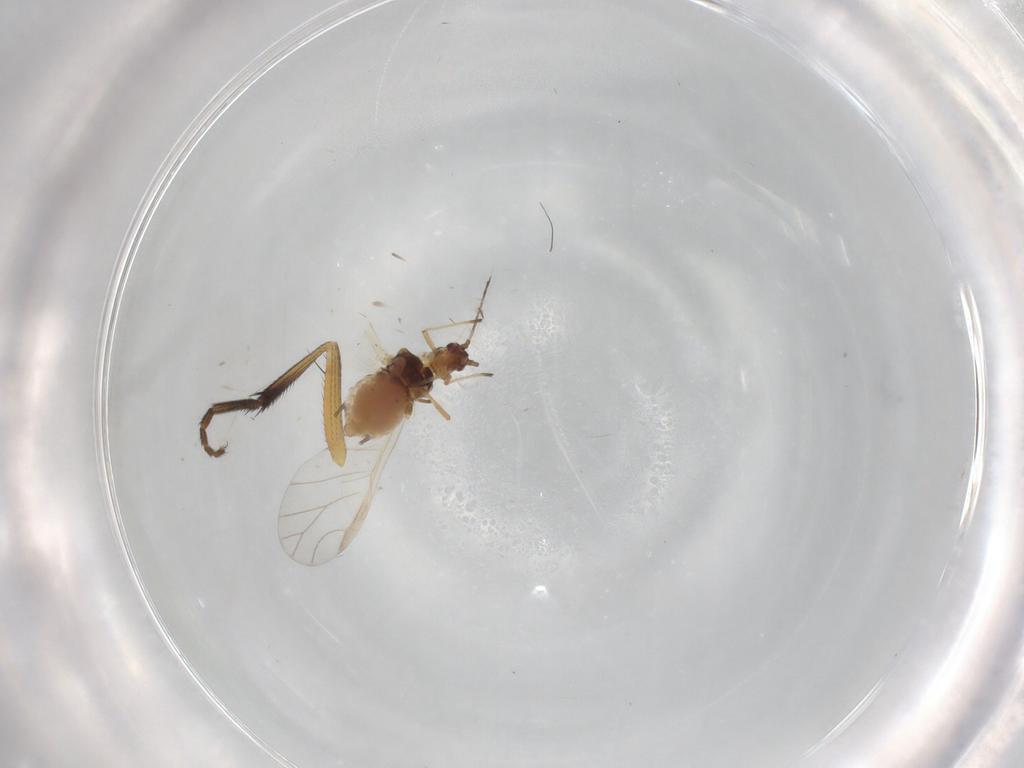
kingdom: Animalia
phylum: Arthropoda
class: Insecta
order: Hemiptera
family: Aphididae
